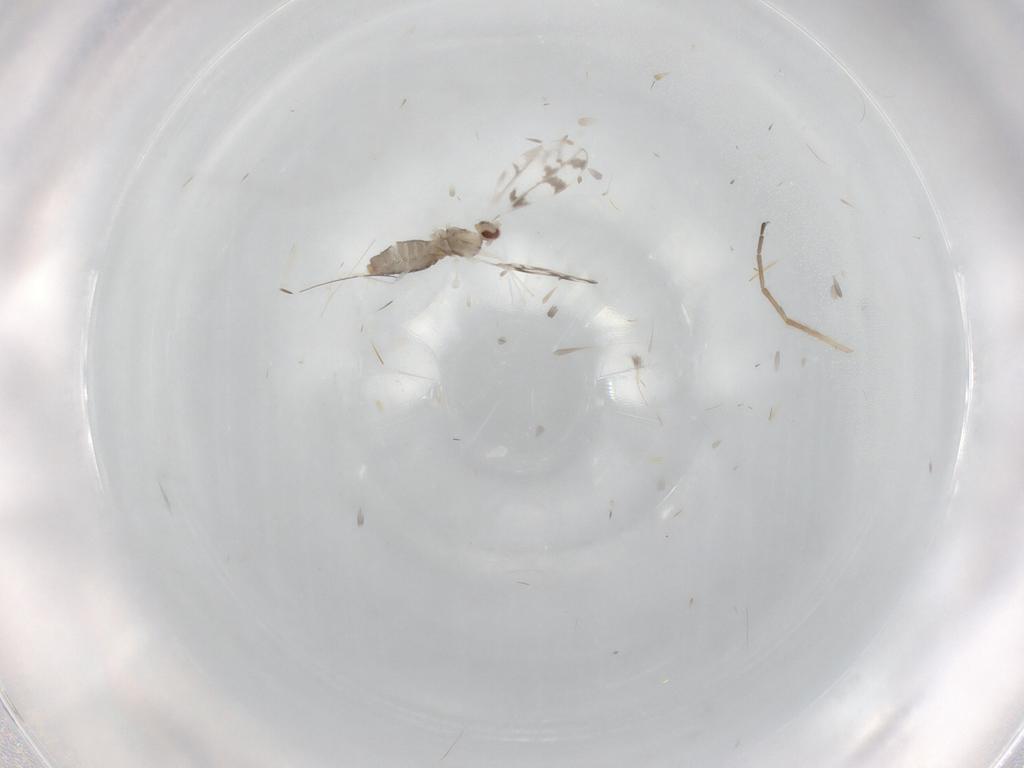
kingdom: Animalia
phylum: Arthropoda
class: Insecta
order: Diptera
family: Chironomidae
